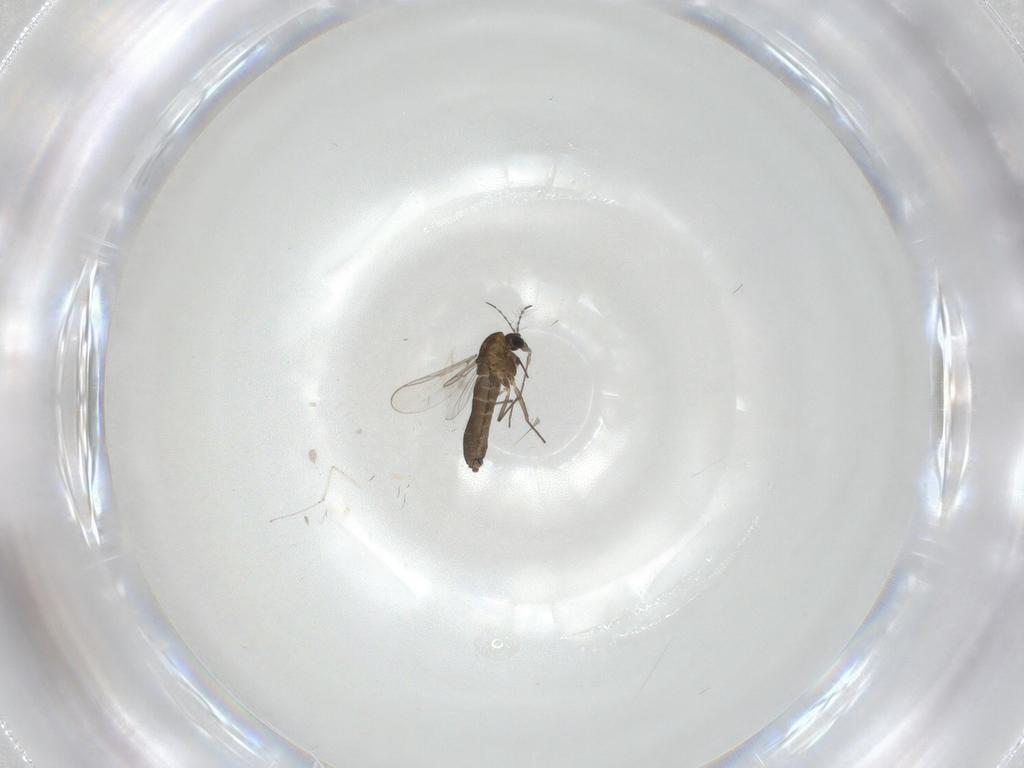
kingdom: Animalia
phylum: Arthropoda
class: Insecta
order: Diptera
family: Chironomidae
